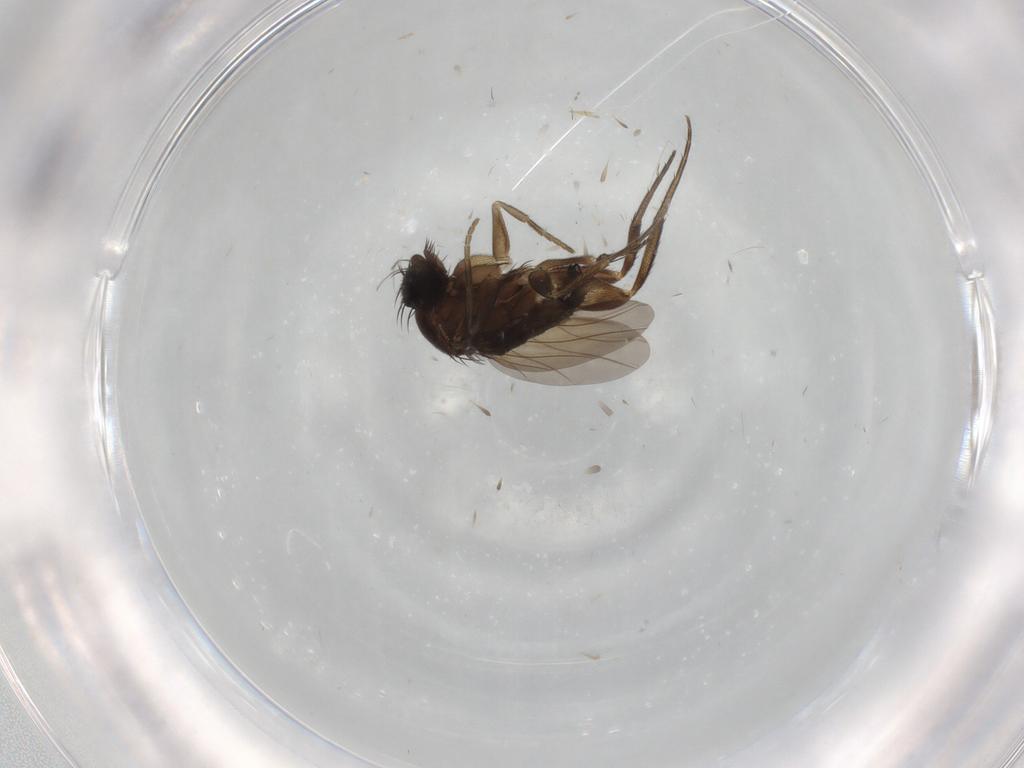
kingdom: Animalia
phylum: Arthropoda
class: Insecta
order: Diptera
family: Phoridae
